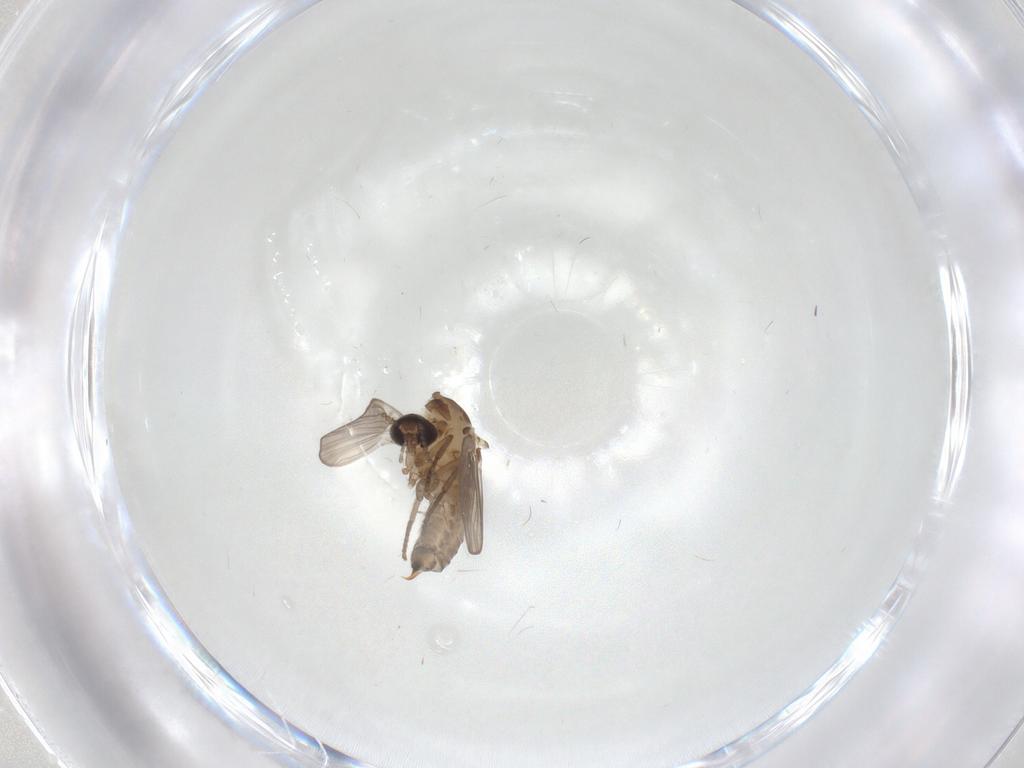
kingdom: Animalia
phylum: Arthropoda
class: Insecta
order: Diptera
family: Psychodidae
